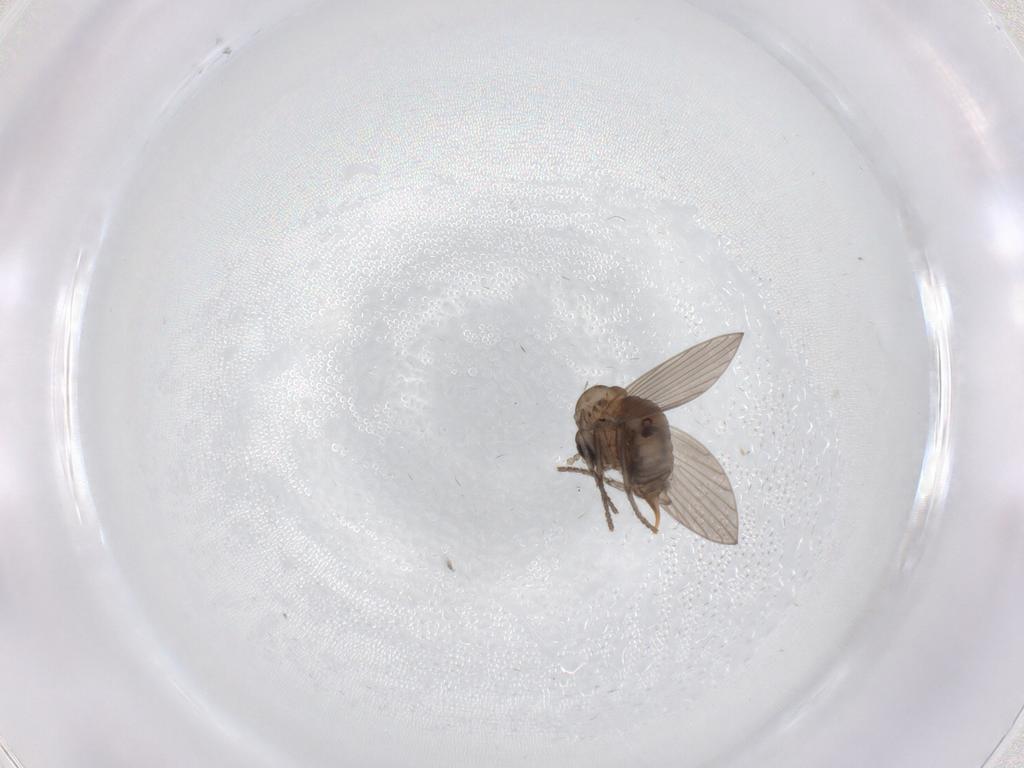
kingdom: Animalia
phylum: Arthropoda
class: Insecta
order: Diptera
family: Psychodidae
